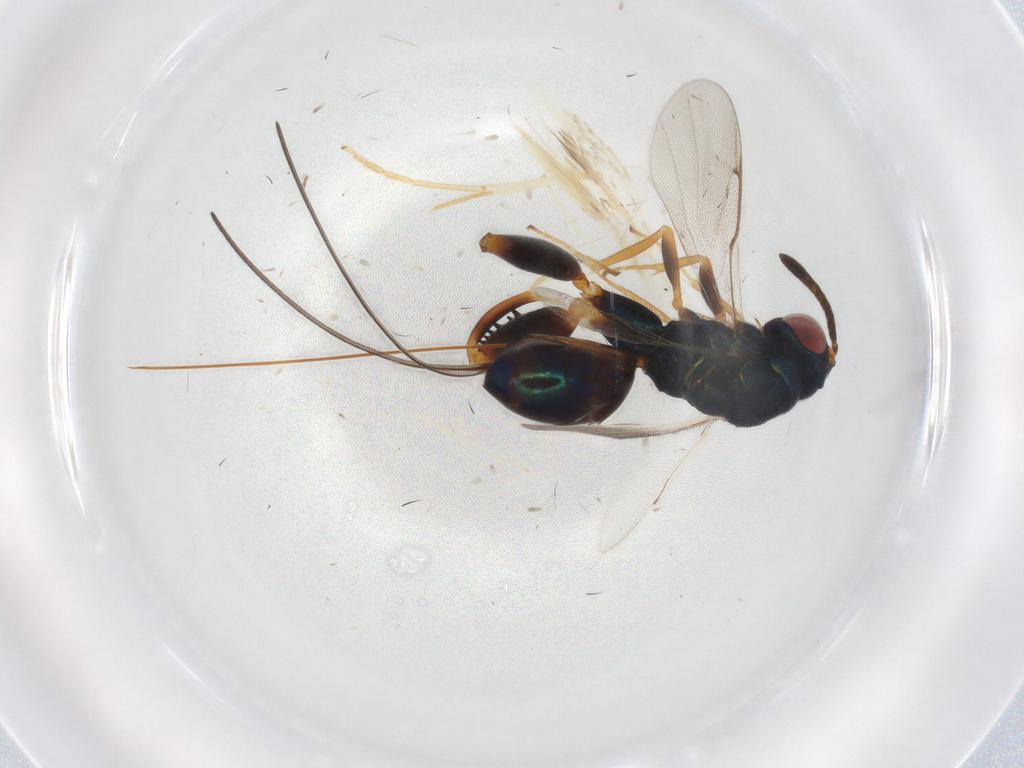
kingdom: Animalia
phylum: Arthropoda
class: Insecta
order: Hymenoptera
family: Torymidae
